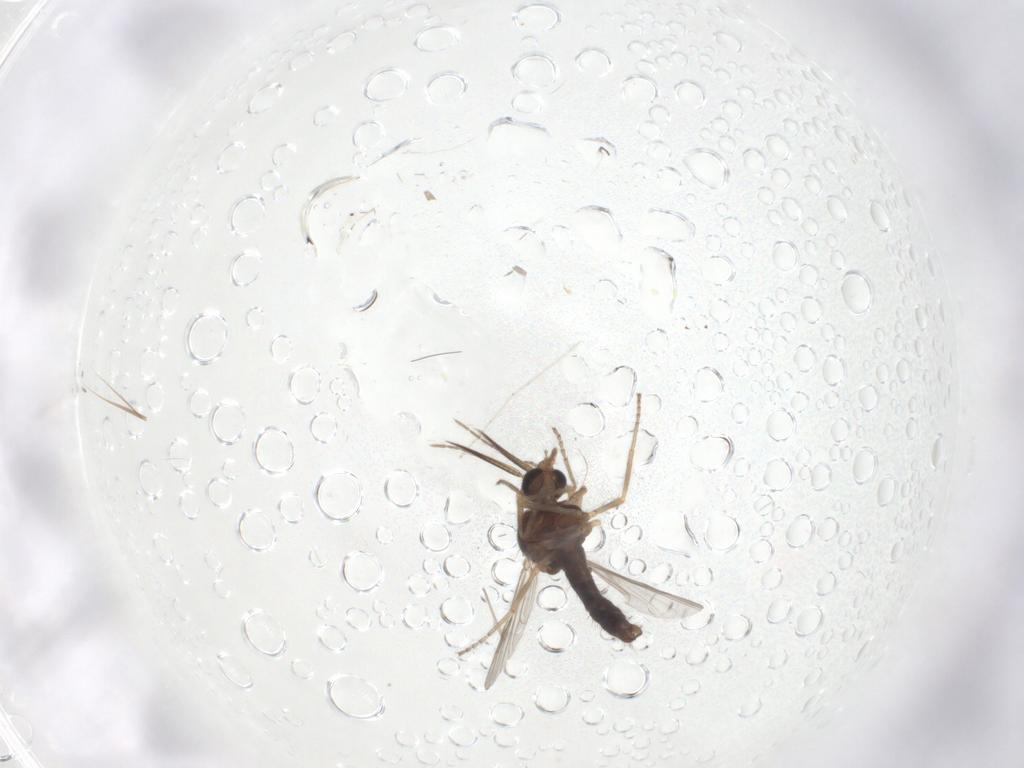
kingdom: Animalia
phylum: Arthropoda
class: Insecta
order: Diptera
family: Ceratopogonidae
